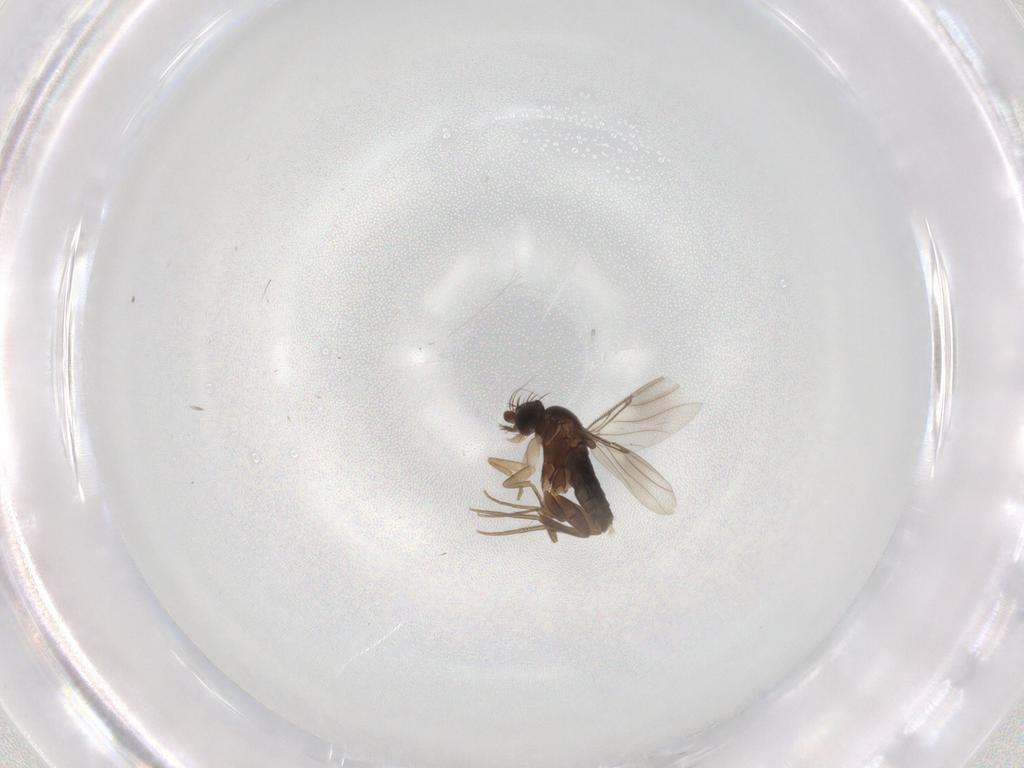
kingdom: Animalia
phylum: Arthropoda
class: Insecta
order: Diptera
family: Phoridae
